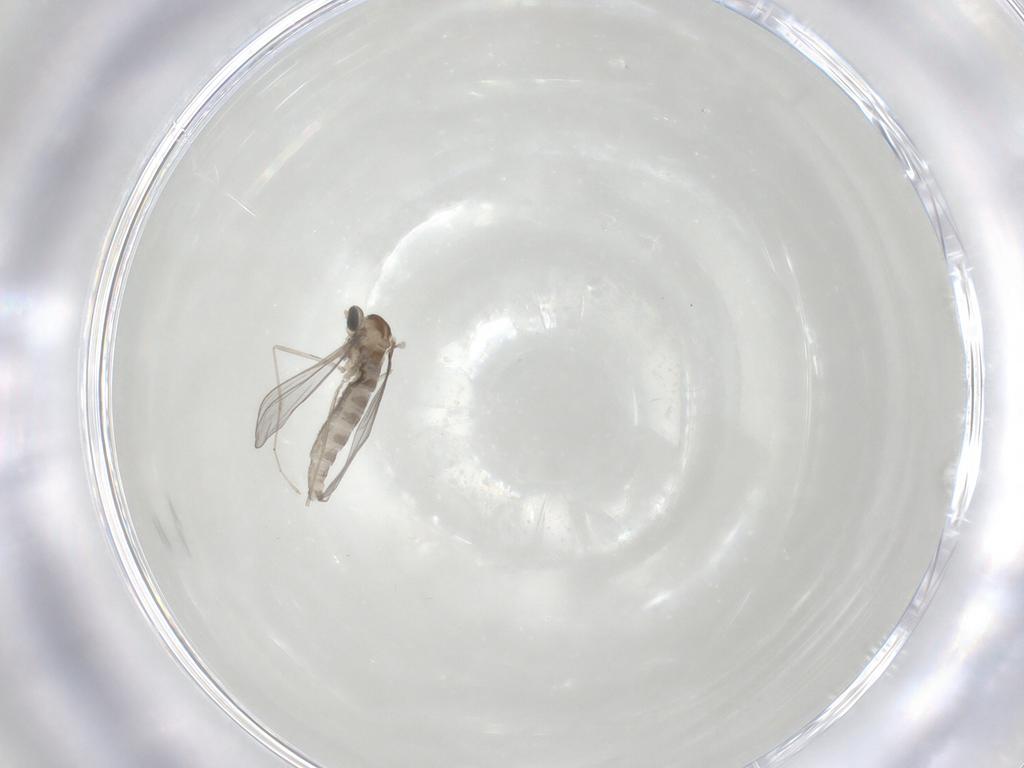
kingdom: Animalia
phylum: Arthropoda
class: Insecta
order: Diptera
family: Cecidomyiidae
